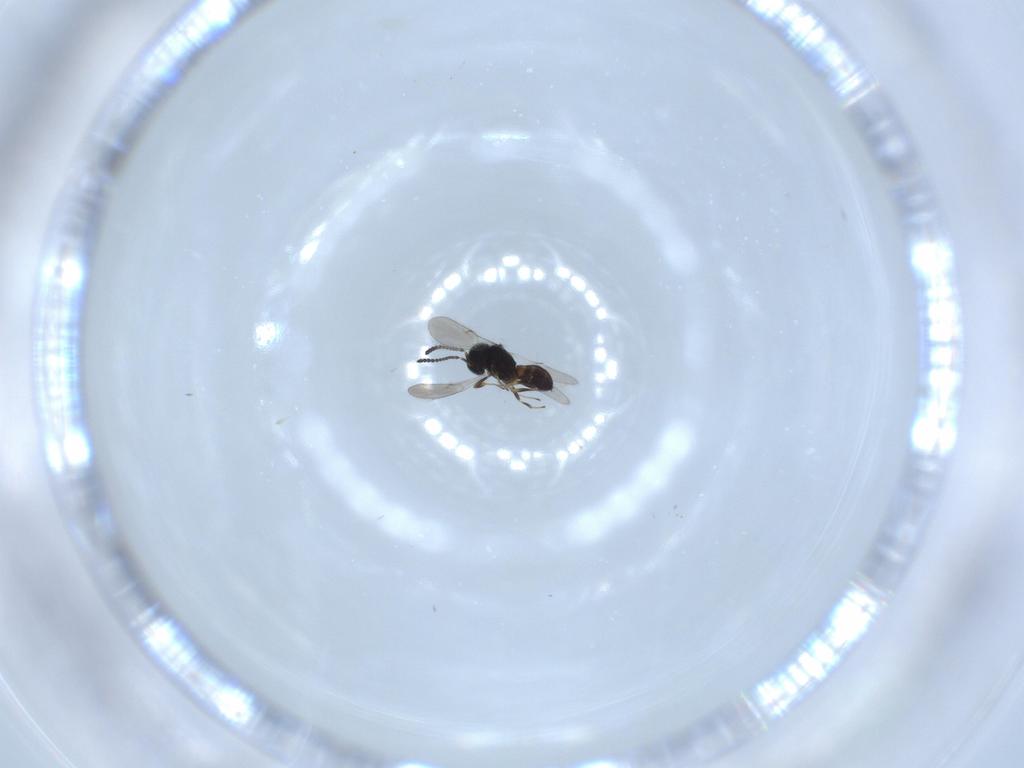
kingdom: Animalia
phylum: Arthropoda
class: Insecta
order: Hymenoptera
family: Scelionidae
